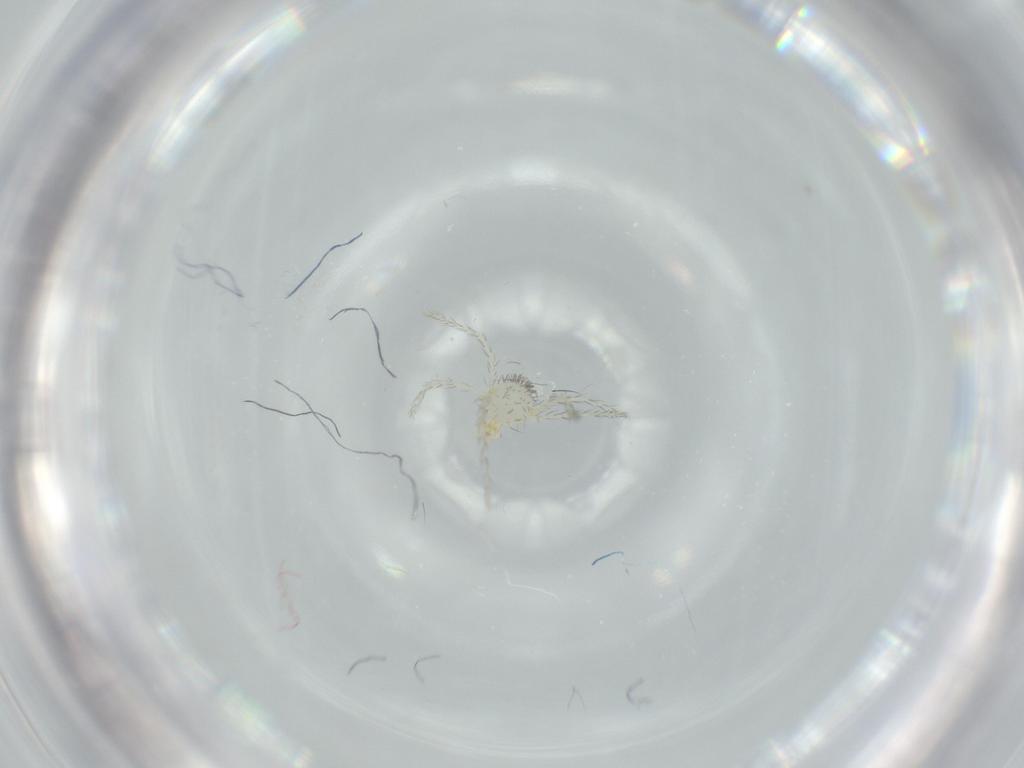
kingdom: Animalia
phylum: Arthropoda
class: Arachnida
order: Trombidiformes
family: Erythraeidae
